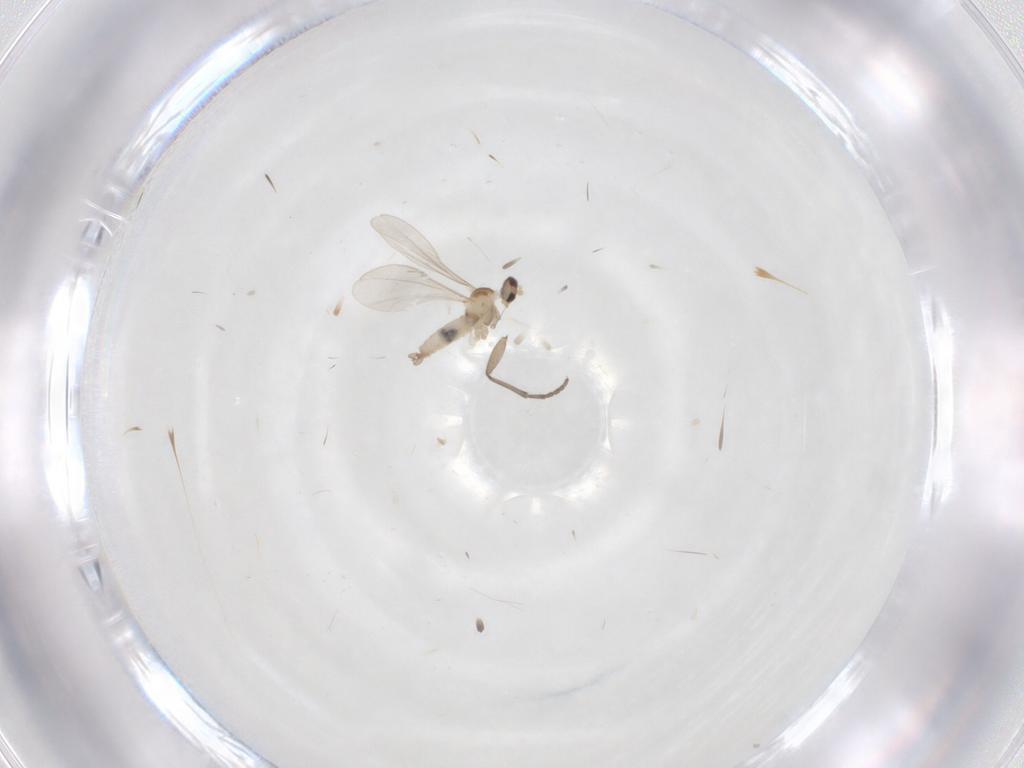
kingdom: Animalia
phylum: Arthropoda
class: Insecta
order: Diptera
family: Cecidomyiidae
